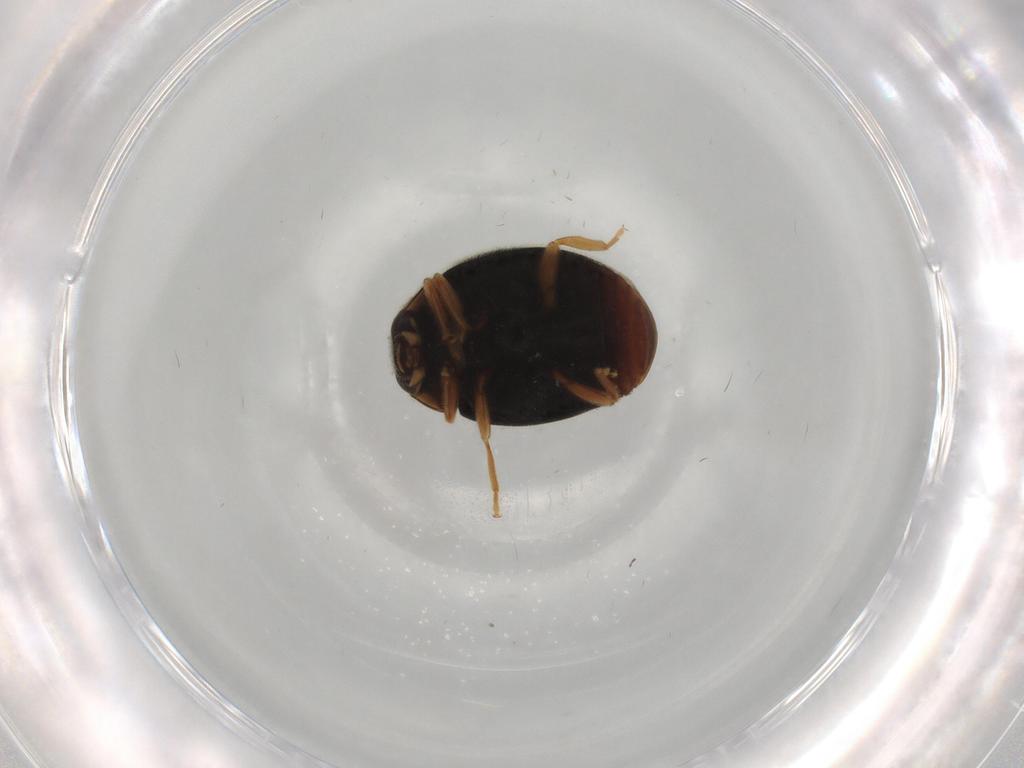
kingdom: Animalia
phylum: Arthropoda
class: Insecta
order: Coleoptera
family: Coccinellidae
